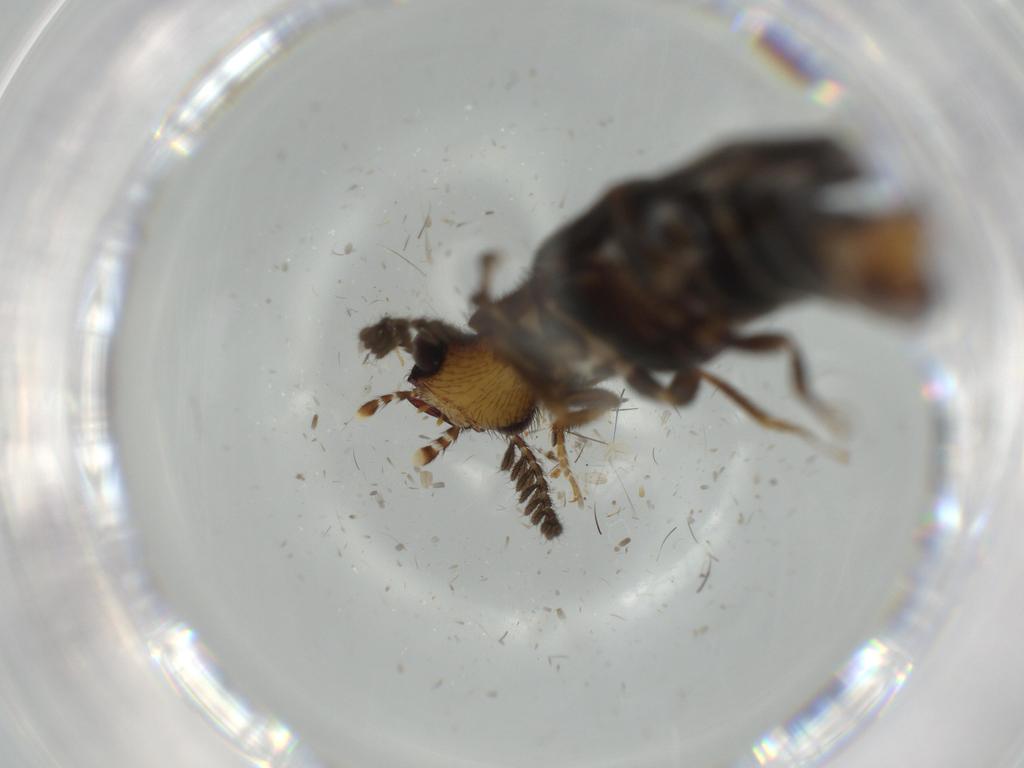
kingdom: Animalia
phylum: Arthropoda
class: Insecta
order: Coleoptera
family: Phengodidae
